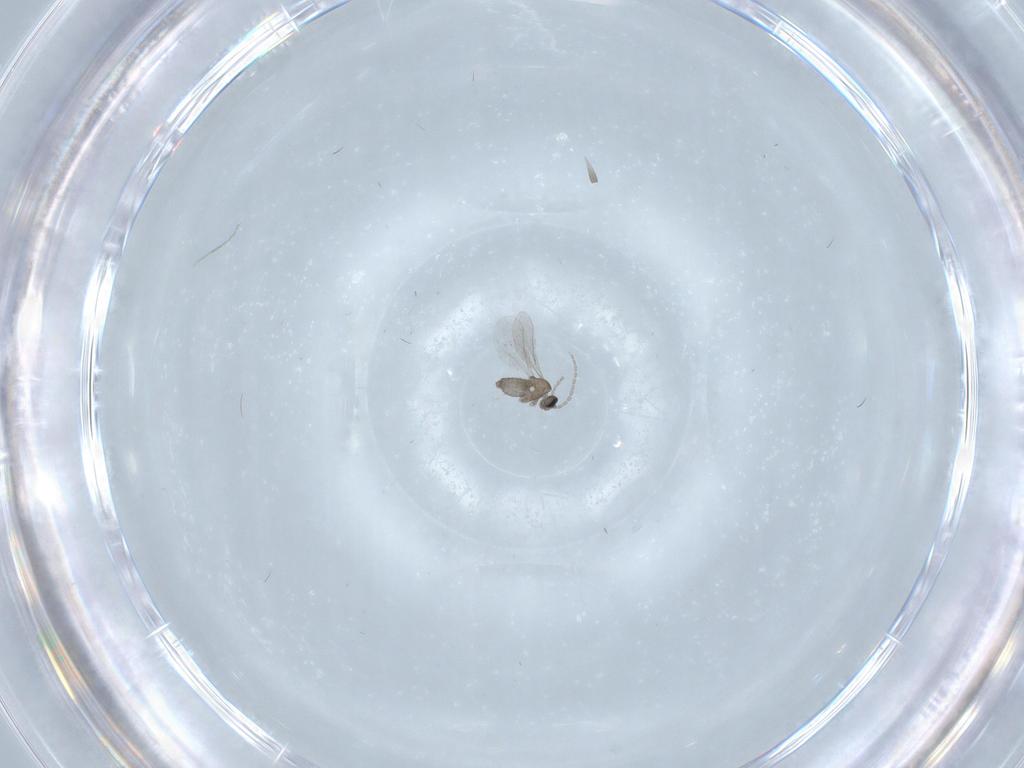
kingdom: Animalia
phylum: Arthropoda
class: Insecta
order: Diptera
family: Cecidomyiidae
